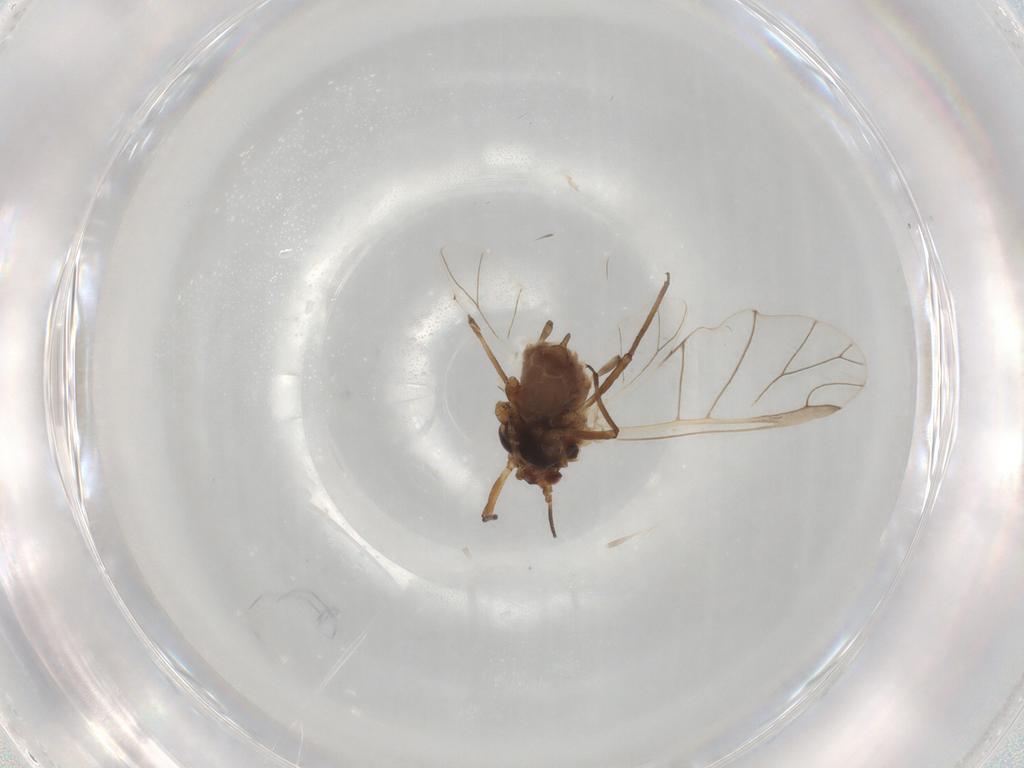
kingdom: Animalia
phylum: Arthropoda
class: Insecta
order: Hemiptera
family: Aphididae
